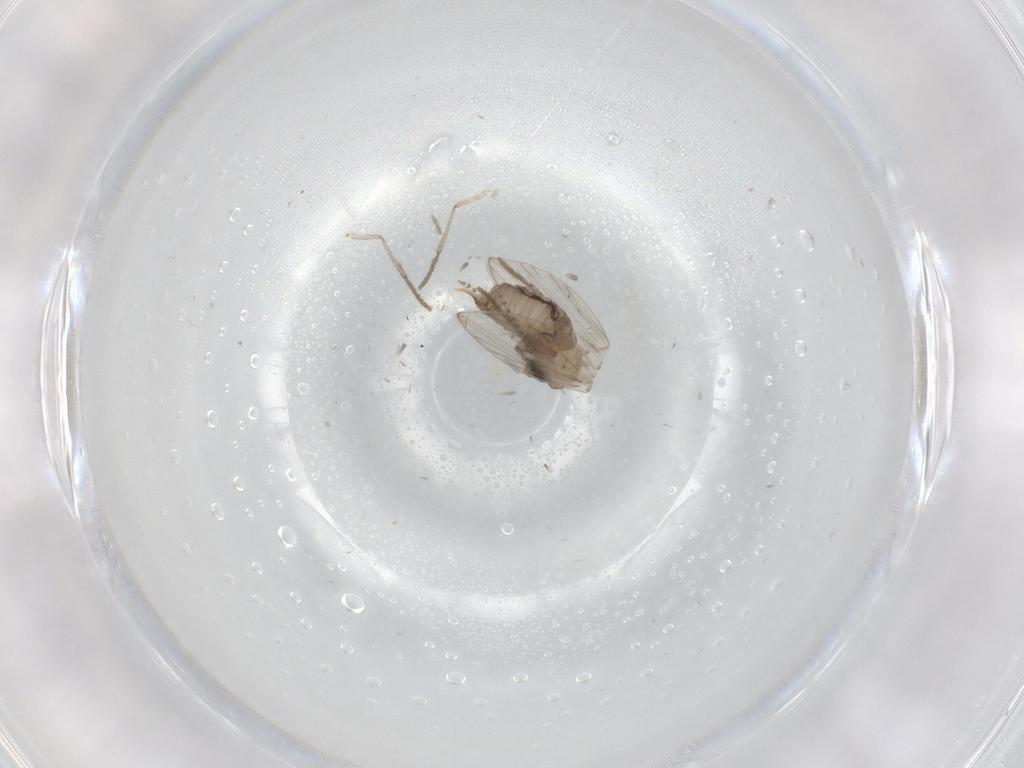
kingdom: Animalia
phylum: Arthropoda
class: Insecta
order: Diptera
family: Psychodidae
